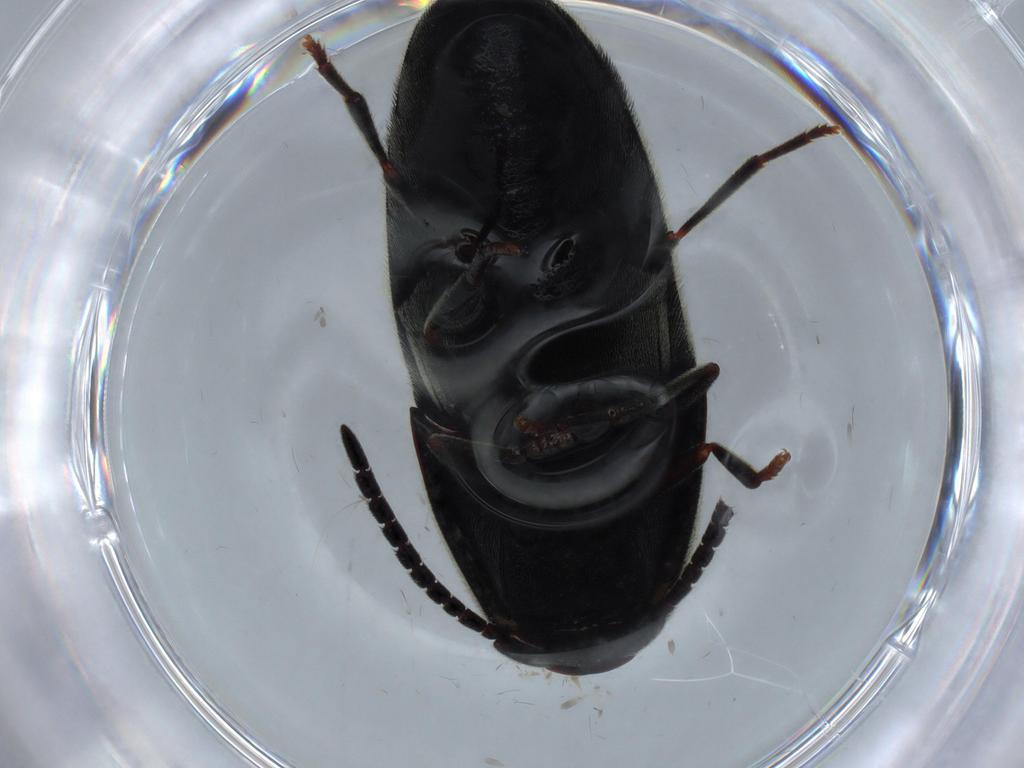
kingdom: Animalia
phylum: Arthropoda
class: Insecta
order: Coleoptera
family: Eucnemidae
